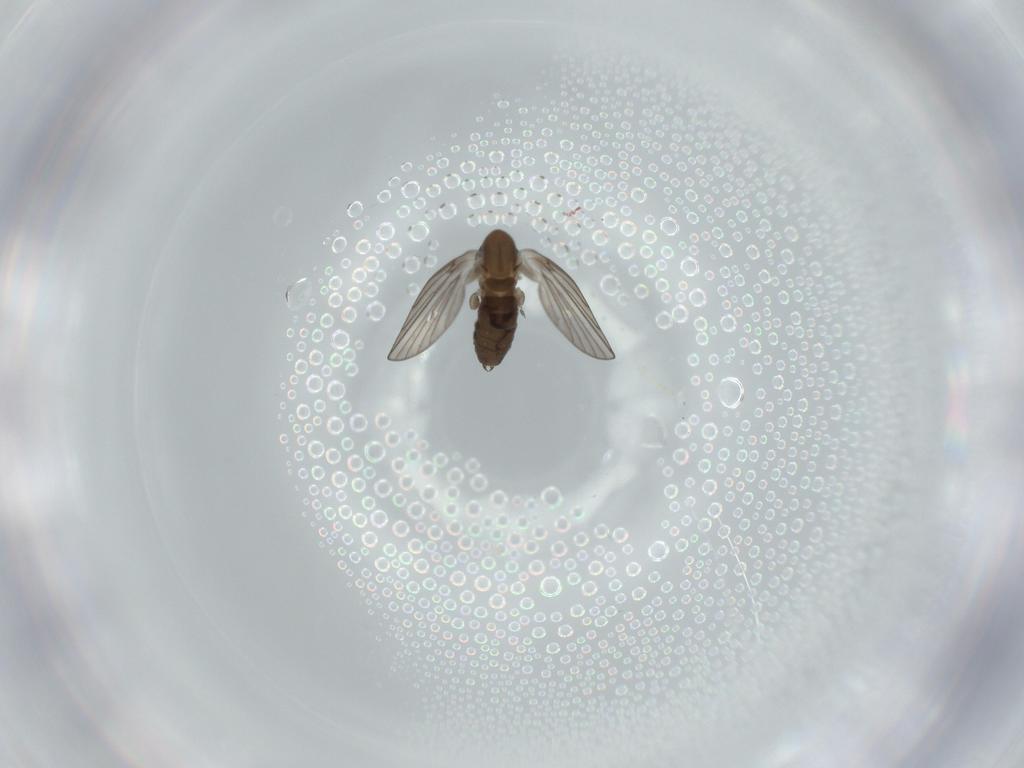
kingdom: Animalia
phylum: Arthropoda
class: Insecta
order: Diptera
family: Psychodidae
